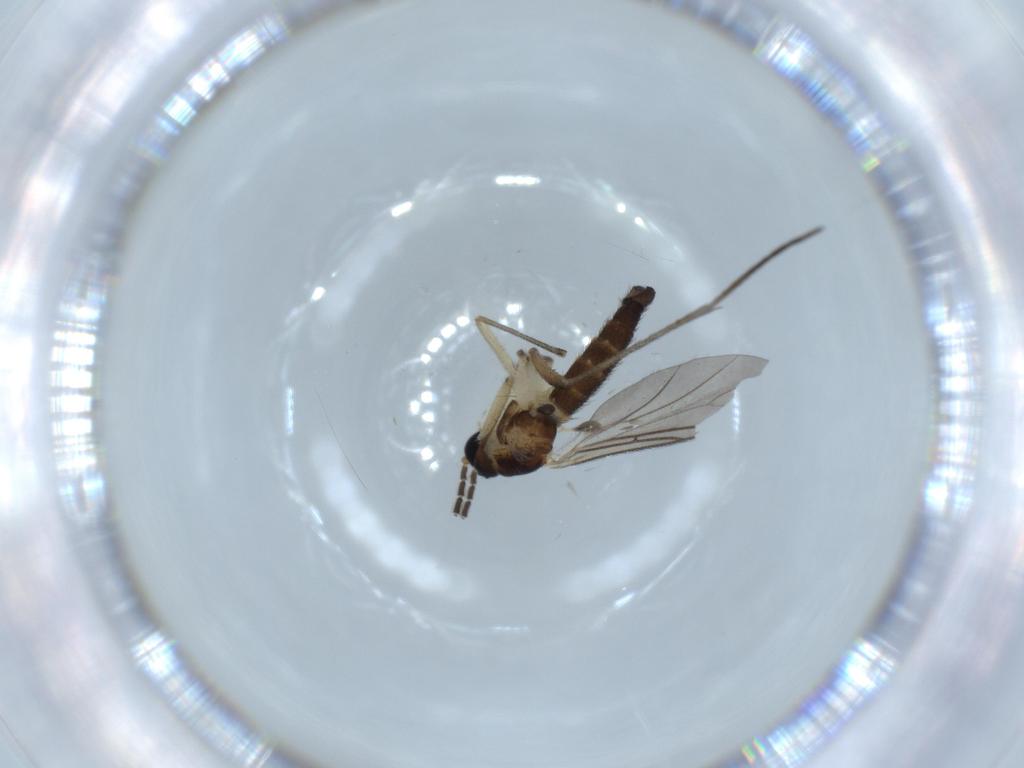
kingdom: Animalia
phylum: Arthropoda
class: Insecta
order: Diptera
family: Sciaridae
